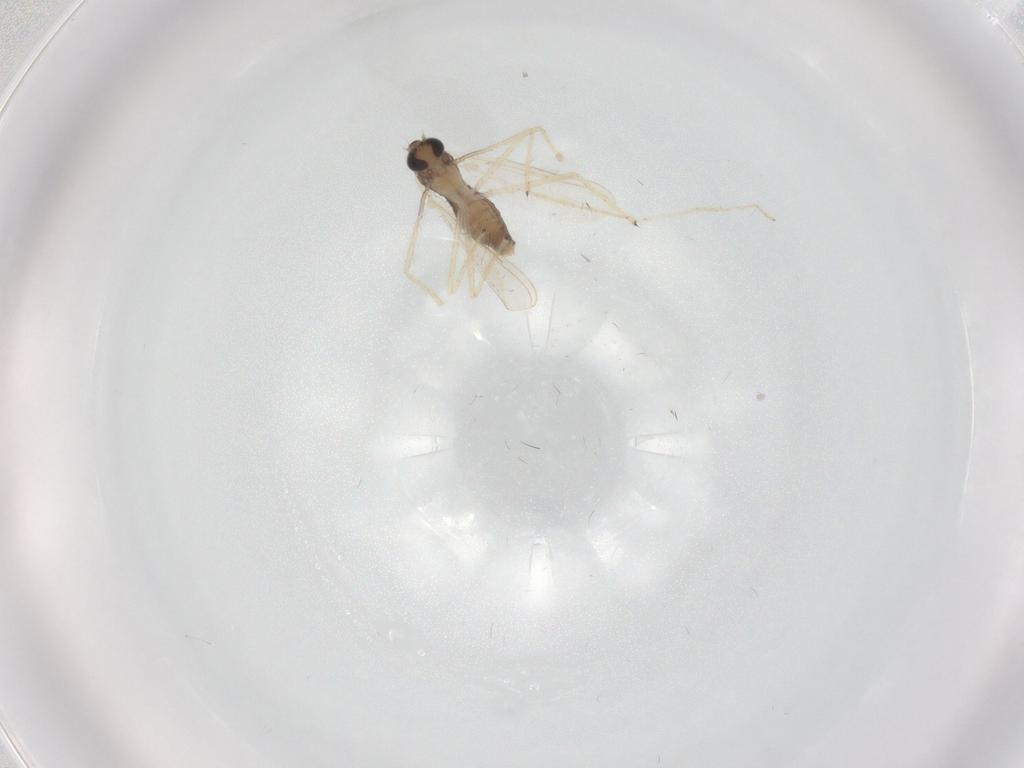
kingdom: Animalia
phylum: Arthropoda
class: Insecta
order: Diptera
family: Chironomidae
